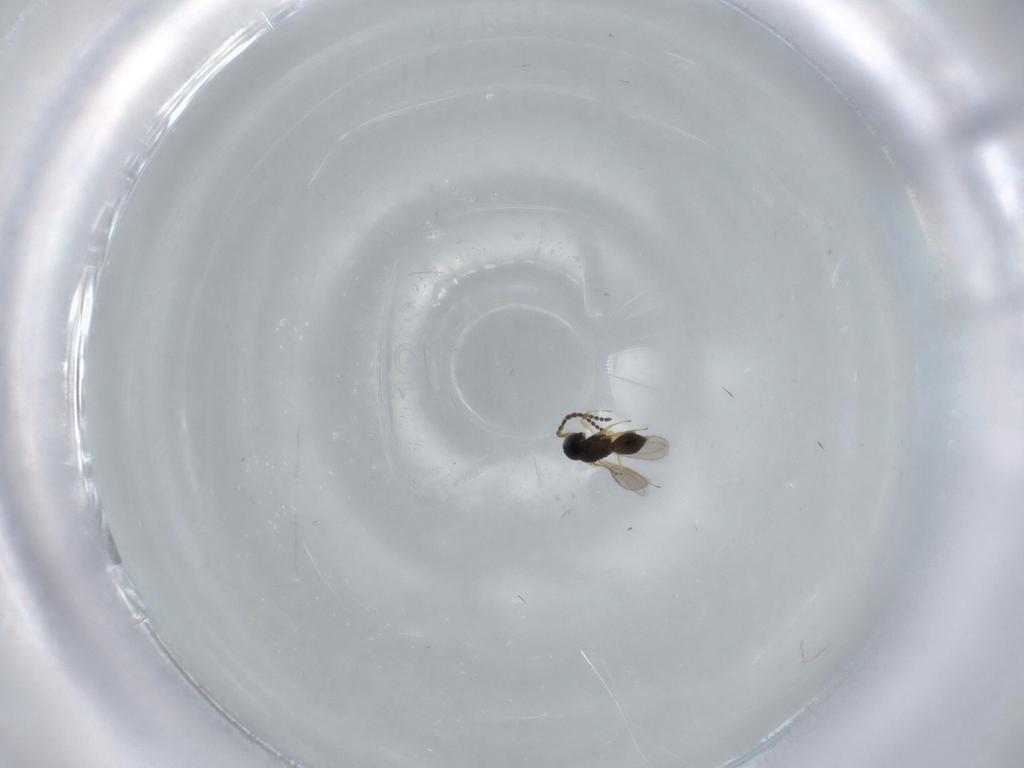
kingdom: Animalia
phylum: Arthropoda
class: Insecta
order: Hymenoptera
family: Scelionidae
